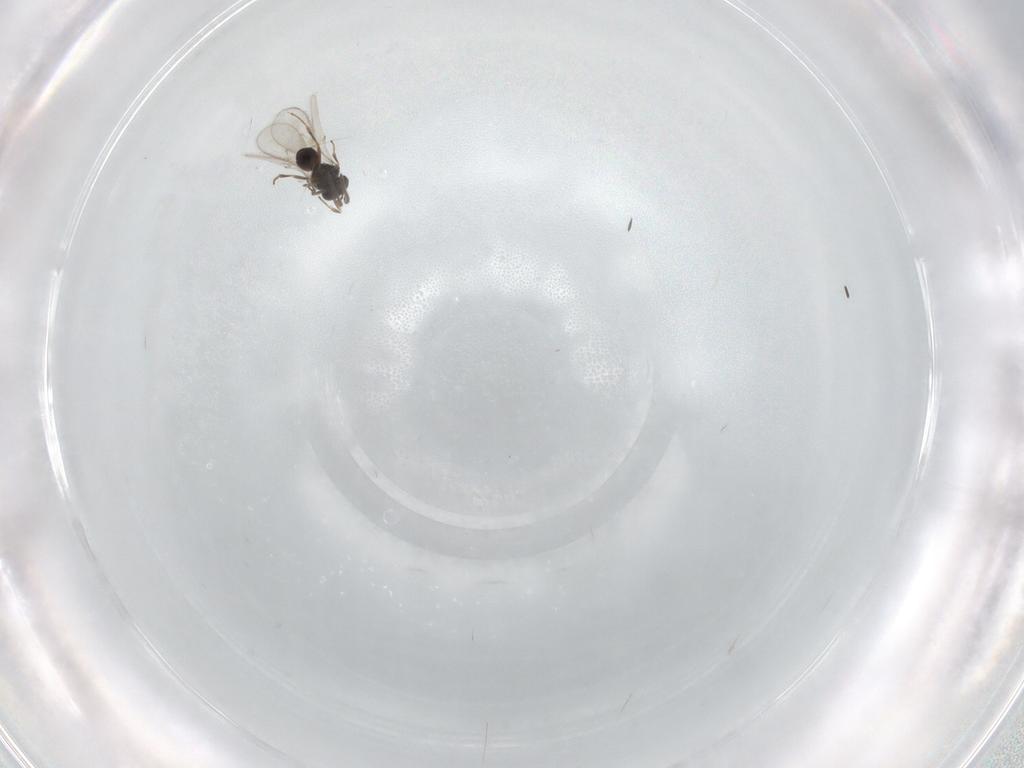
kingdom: Animalia
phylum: Arthropoda
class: Insecta
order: Hymenoptera
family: Scelionidae
